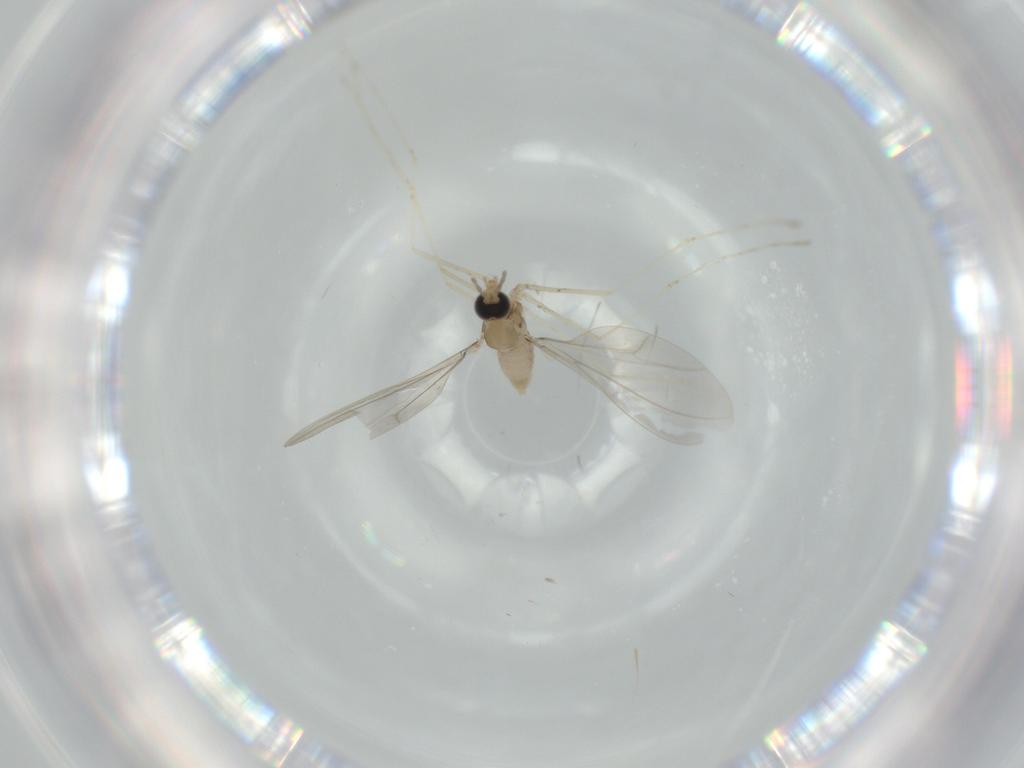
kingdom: Animalia
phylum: Arthropoda
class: Insecta
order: Diptera
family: Cecidomyiidae
